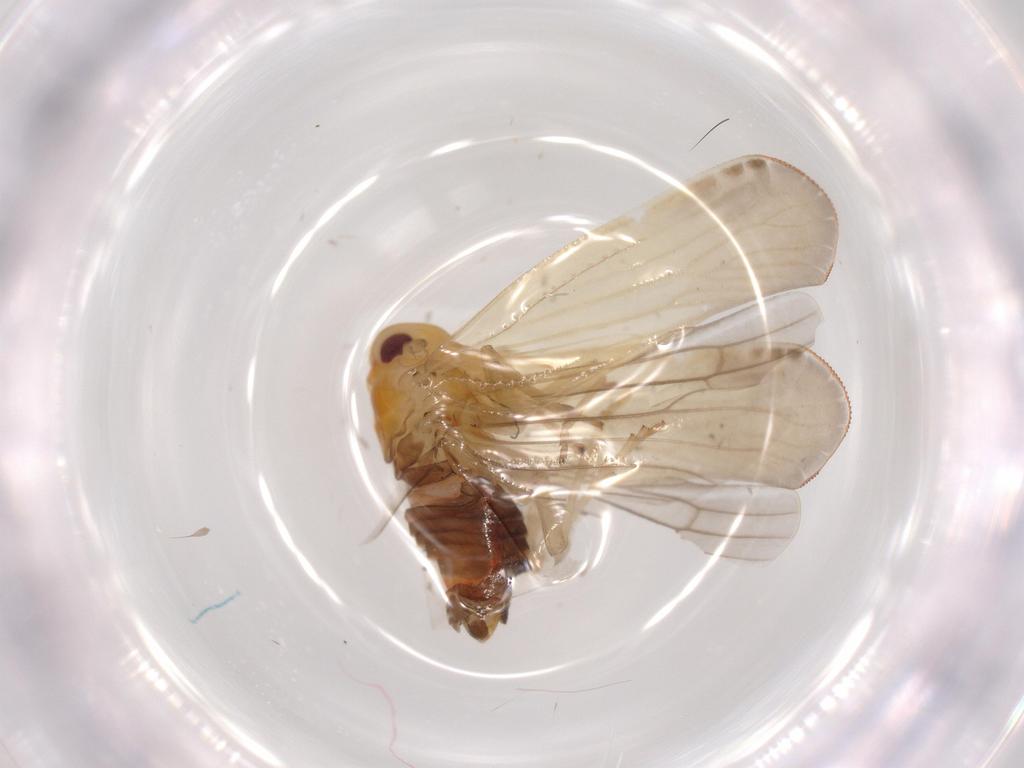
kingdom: Animalia
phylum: Arthropoda
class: Insecta
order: Hemiptera
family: Derbidae
